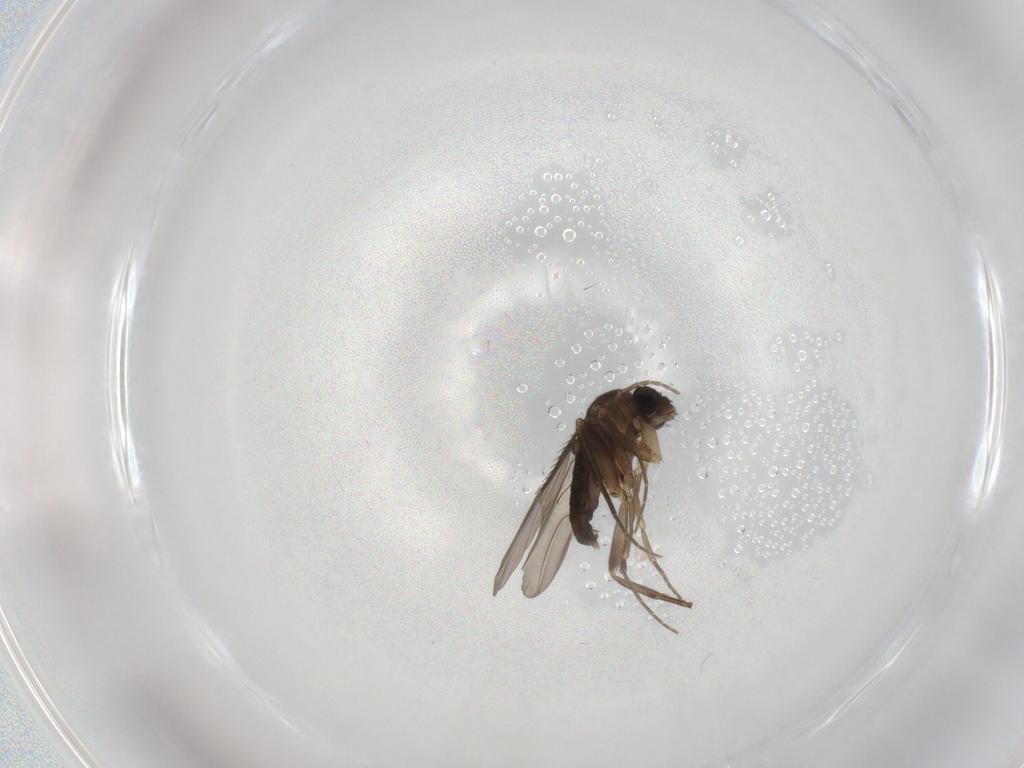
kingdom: Animalia
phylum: Arthropoda
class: Insecta
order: Diptera
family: Phoridae
